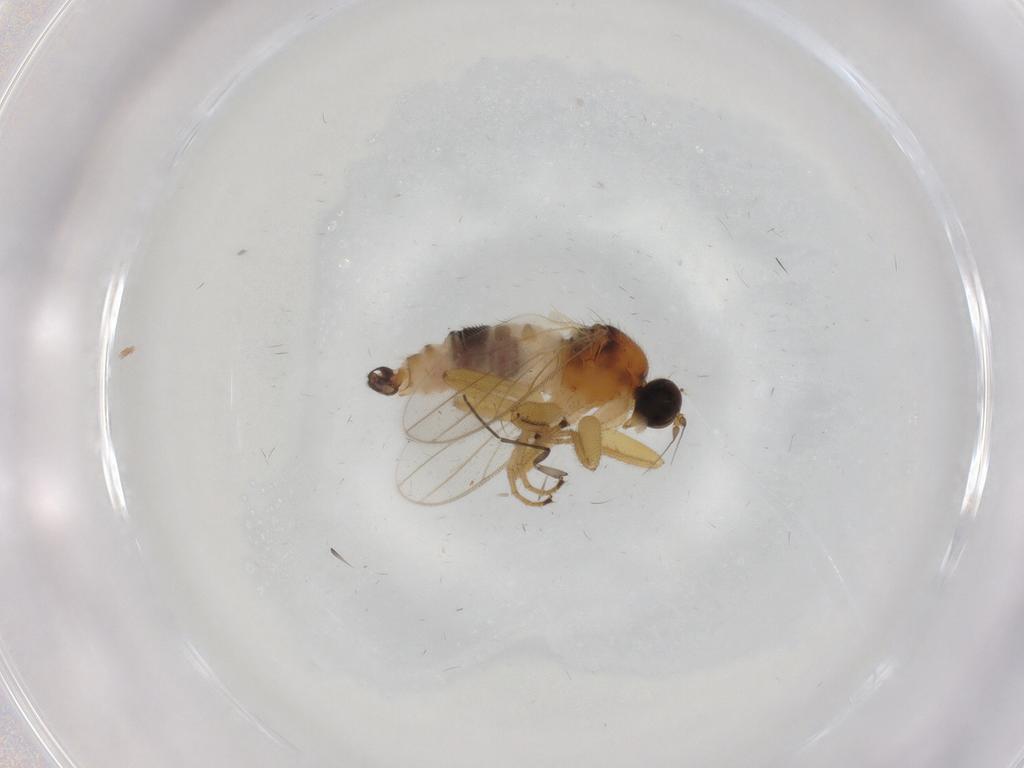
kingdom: Animalia
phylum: Arthropoda
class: Insecta
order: Diptera
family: Hybotidae
